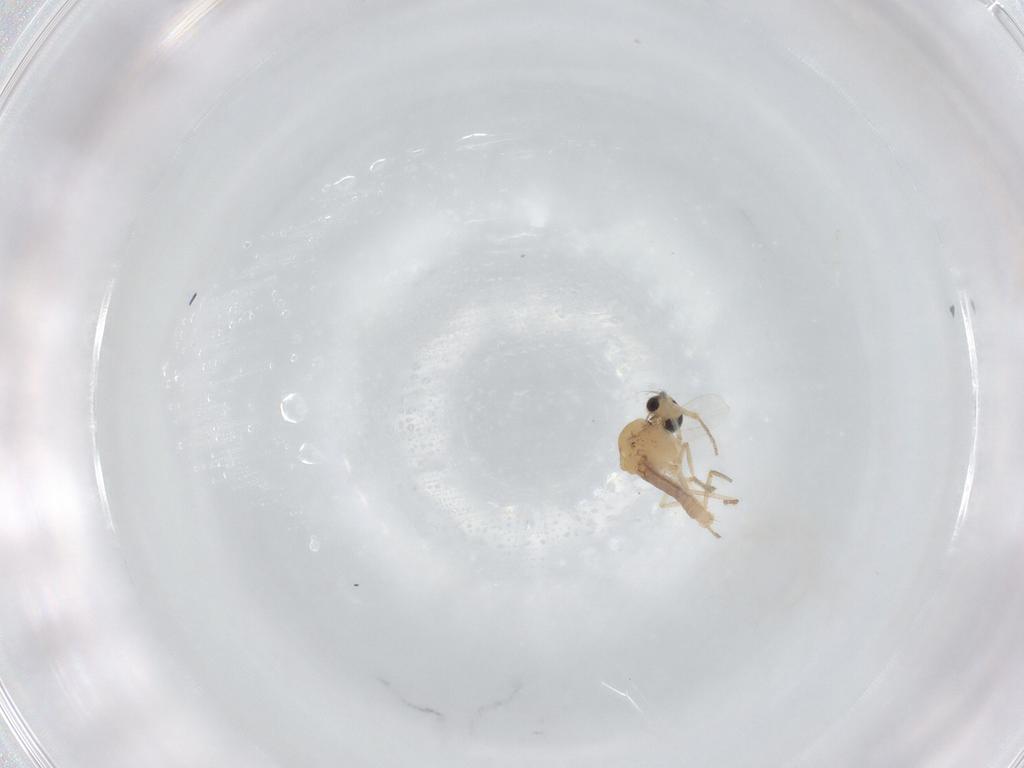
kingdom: Animalia
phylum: Arthropoda
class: Insecta
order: Diptera
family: Ceratopogonidae
